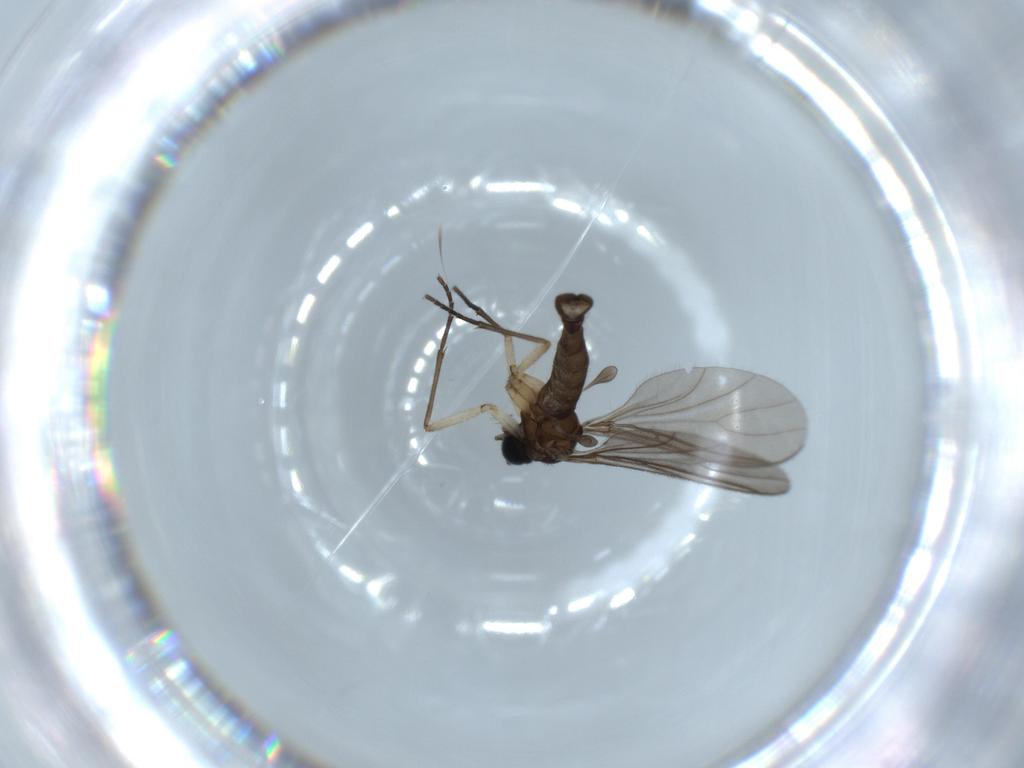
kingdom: Animalia
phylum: Arthropoda
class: Insecta
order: Diptera
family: Sciaridae
